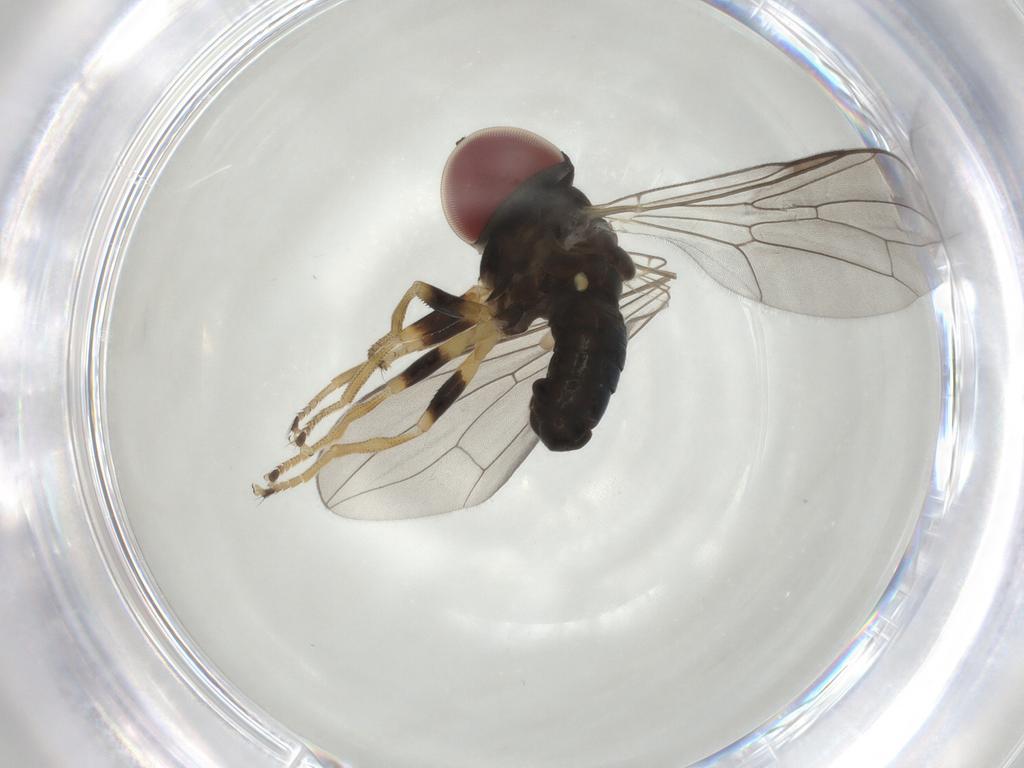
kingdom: Animalia
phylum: Arthropoda
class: Insecta
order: Diptera
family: Pipunculidae
